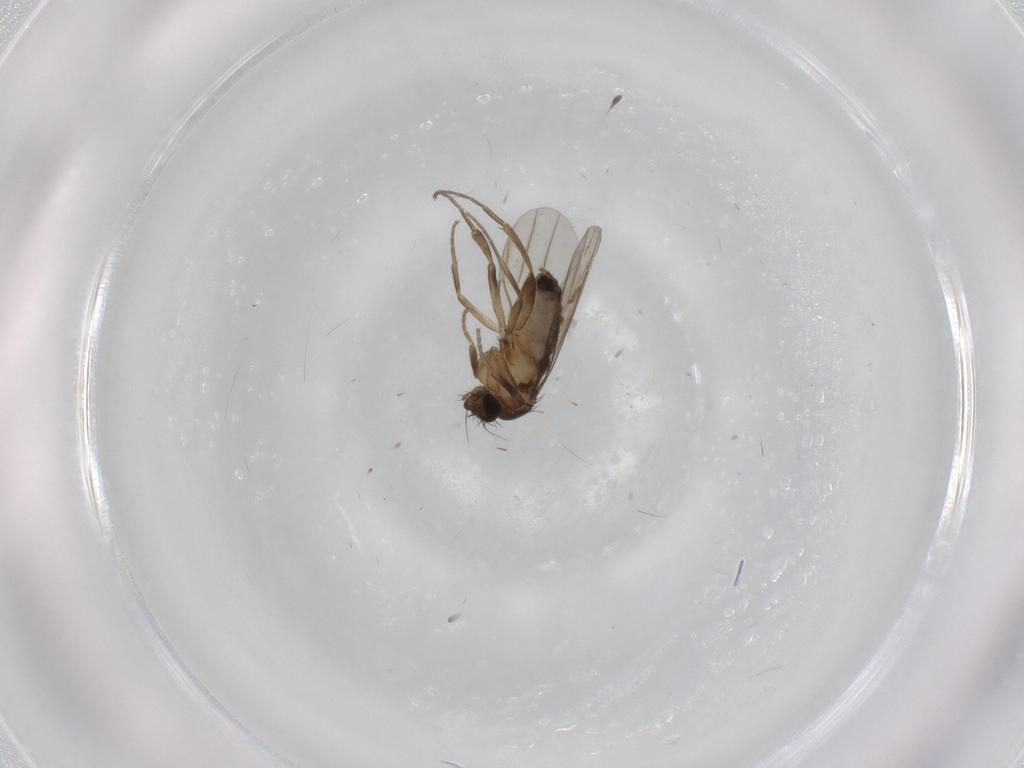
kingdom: Animalia
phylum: Arthropoda
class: Insecta
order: Diptera
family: Phoridae
